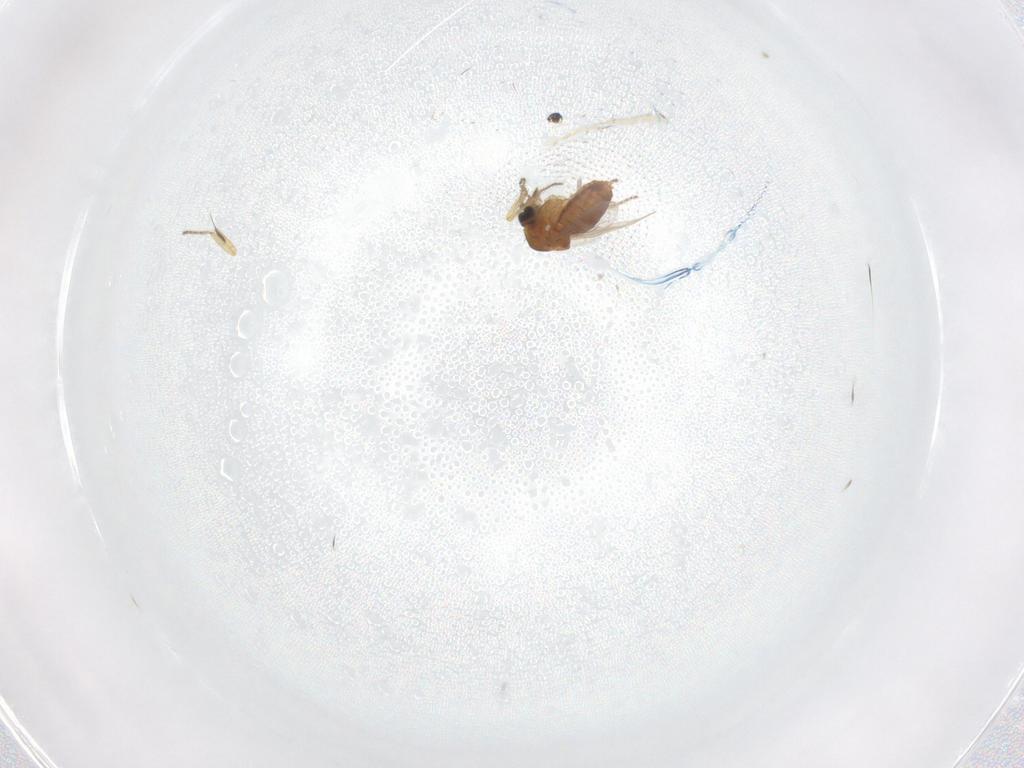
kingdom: Animalia
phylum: Arthropoda
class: Insecta
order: Diptera
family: Ceratopogonidae
